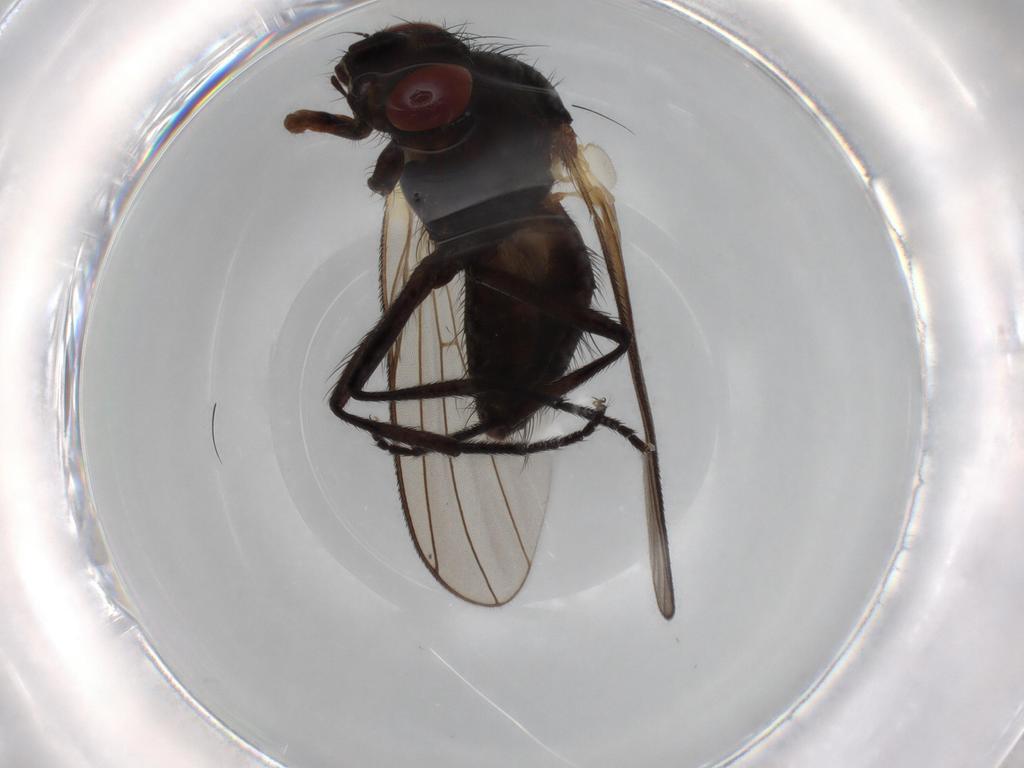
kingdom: Animalia
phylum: Arthropoda
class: Insecta
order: Diptera
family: Fannia
